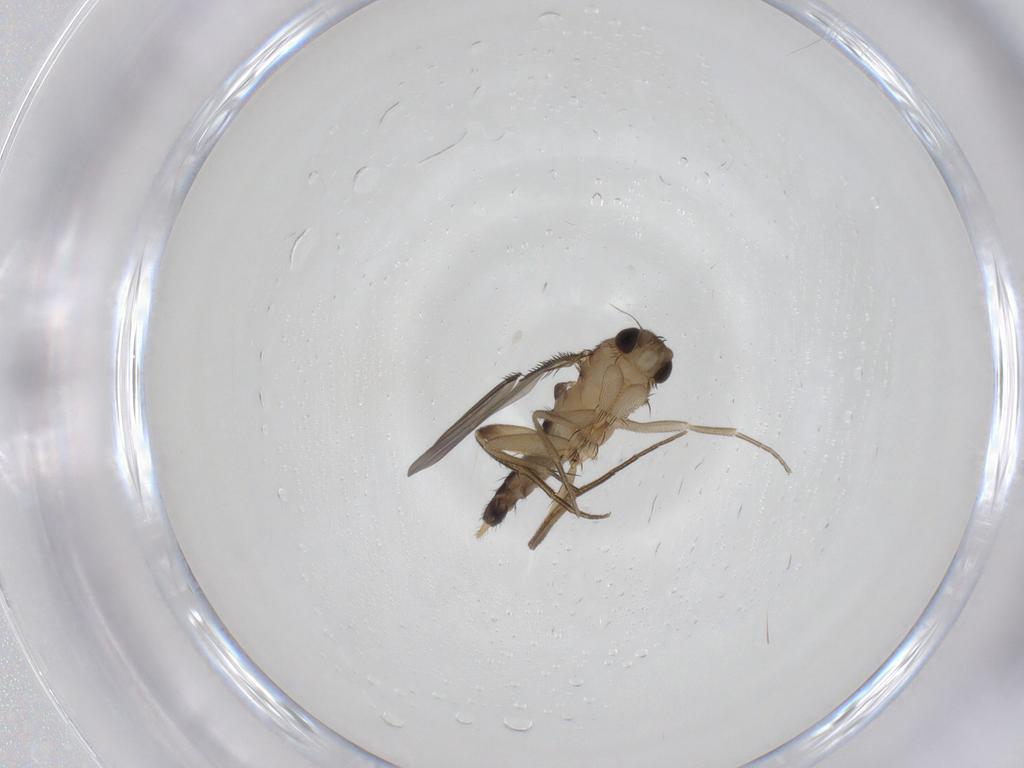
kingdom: Animalia
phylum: Arthropoda
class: Insecta
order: Diptera
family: Phoridae
